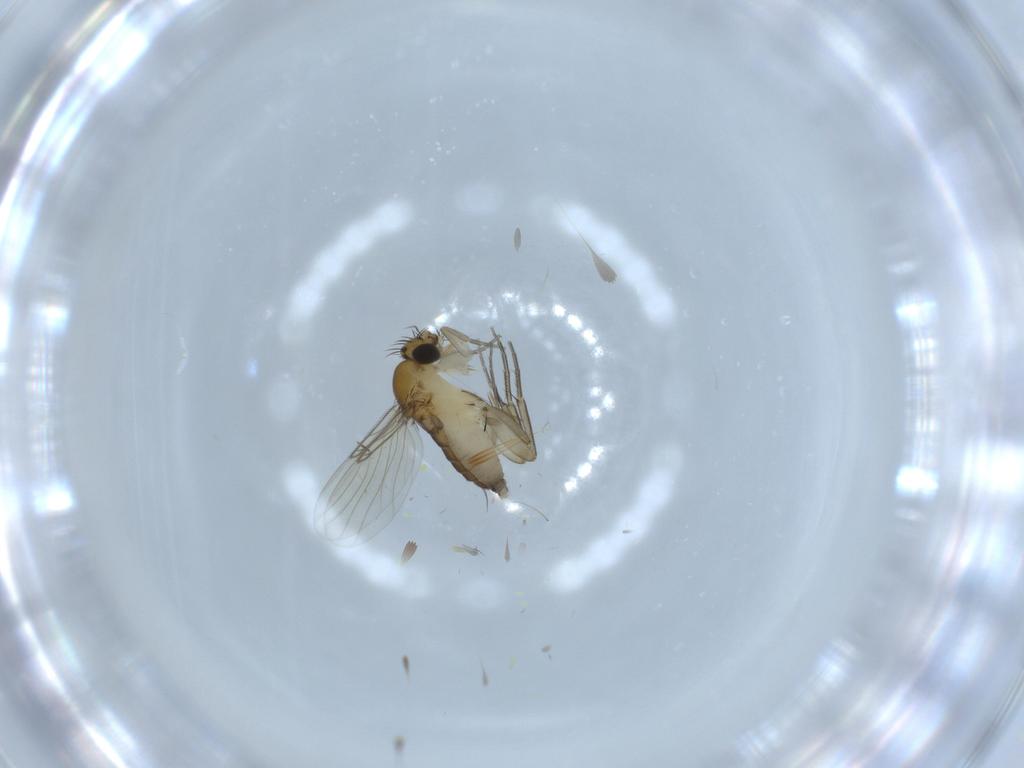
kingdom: Animalia
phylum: Arthropoda
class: Insecta
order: Diptera
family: Phoridae
